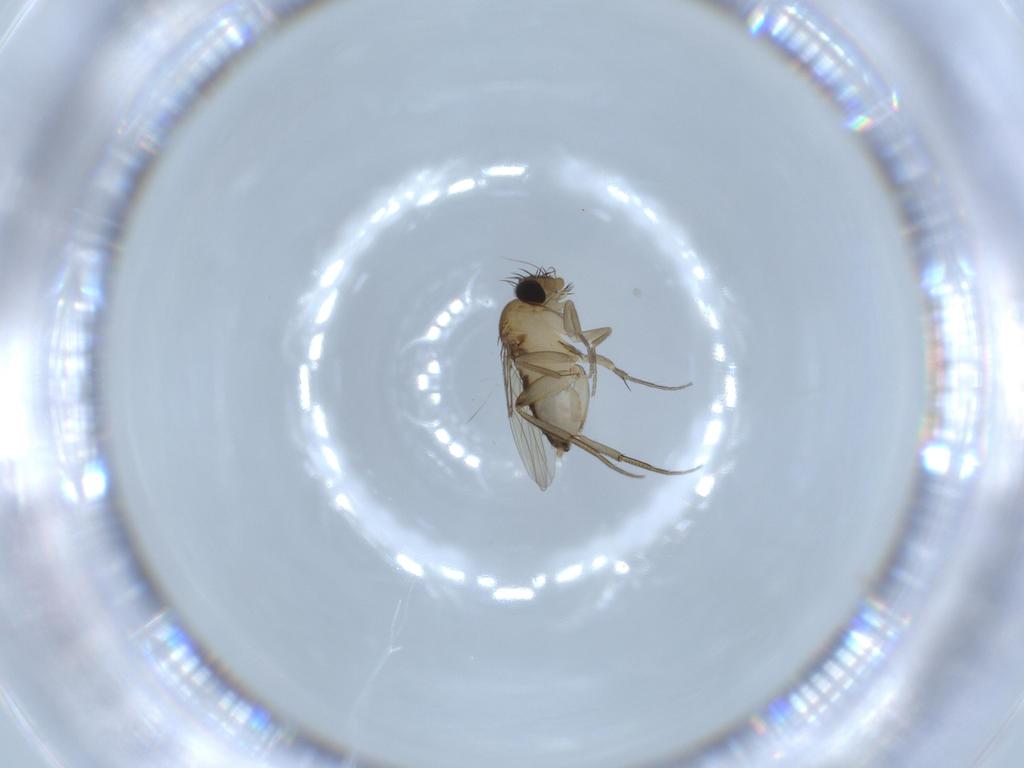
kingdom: Animalia
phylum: Arthropoda
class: Insecta
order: Diptera
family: Phoridae
